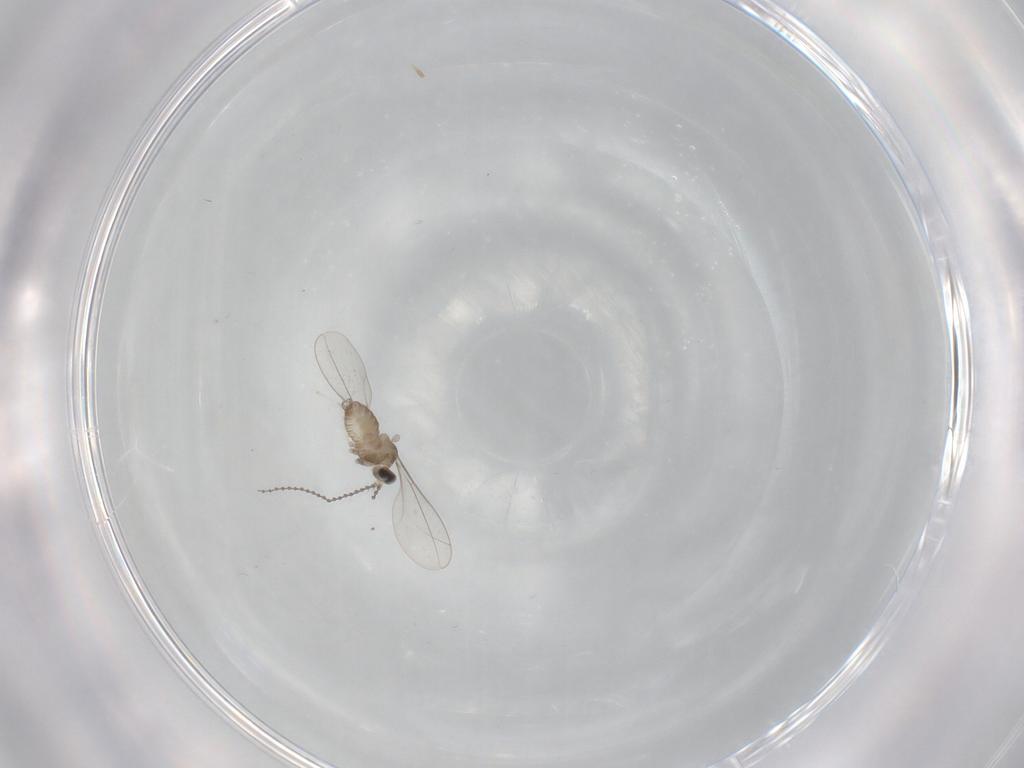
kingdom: Animalia
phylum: Arthropoda
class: Insecta
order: Diptera
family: Cecidomyiidae
